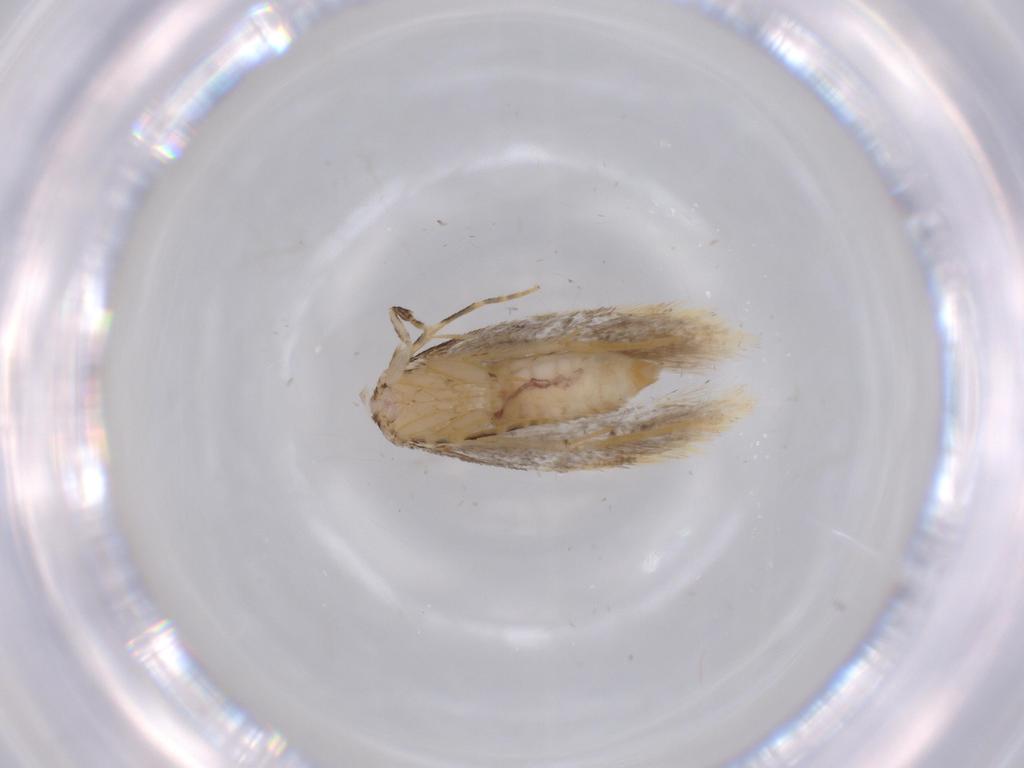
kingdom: Animalia
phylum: Arthropoda
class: Insecta
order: Lepidoptera
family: Tineidae
